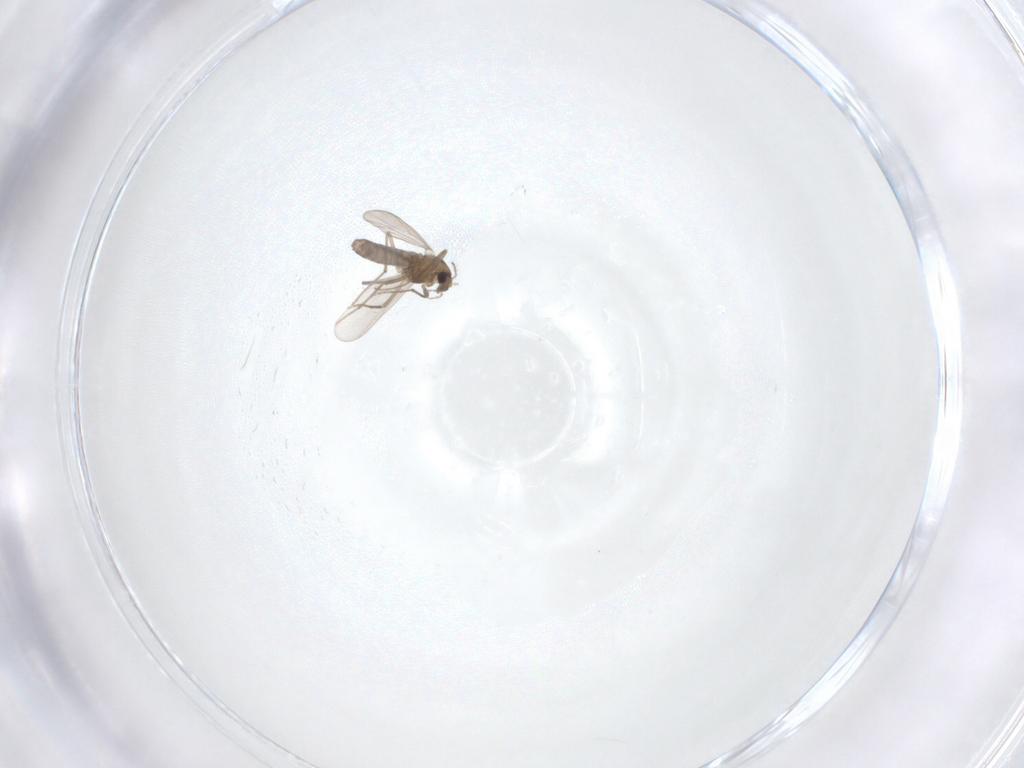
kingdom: Animalia
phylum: Arthropoda
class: Insecta
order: Diptera
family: Chironomidae
